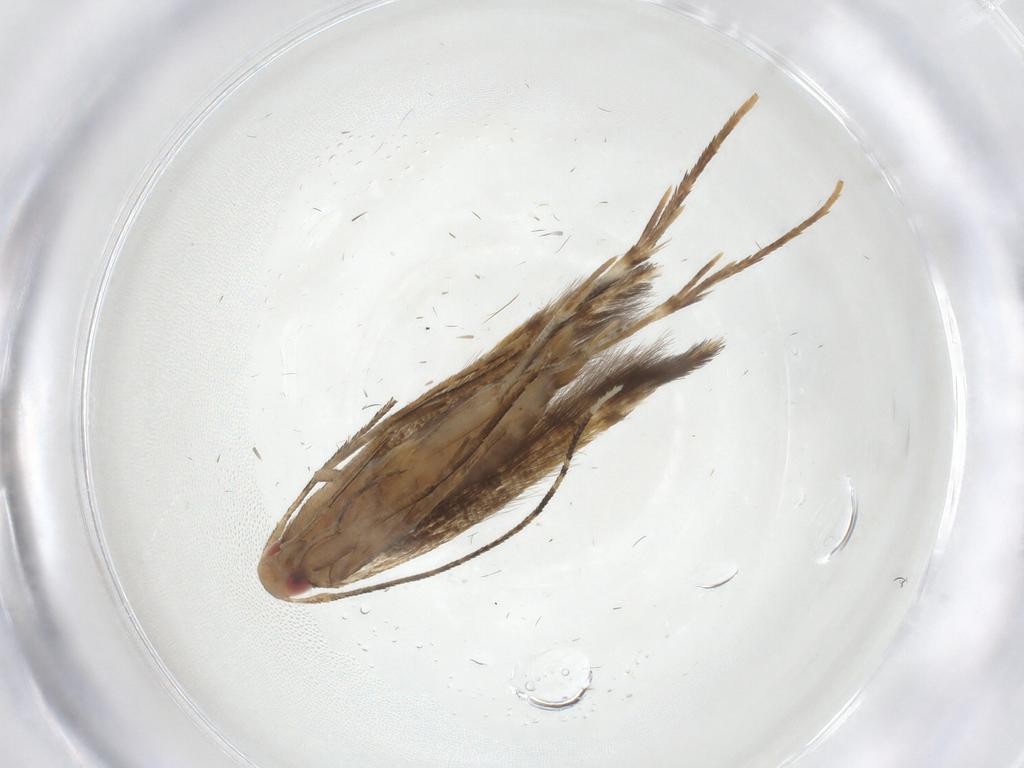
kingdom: Animalia
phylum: Arthropoda
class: Insecta
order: Lepidoptera
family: Cosmopterigidae
